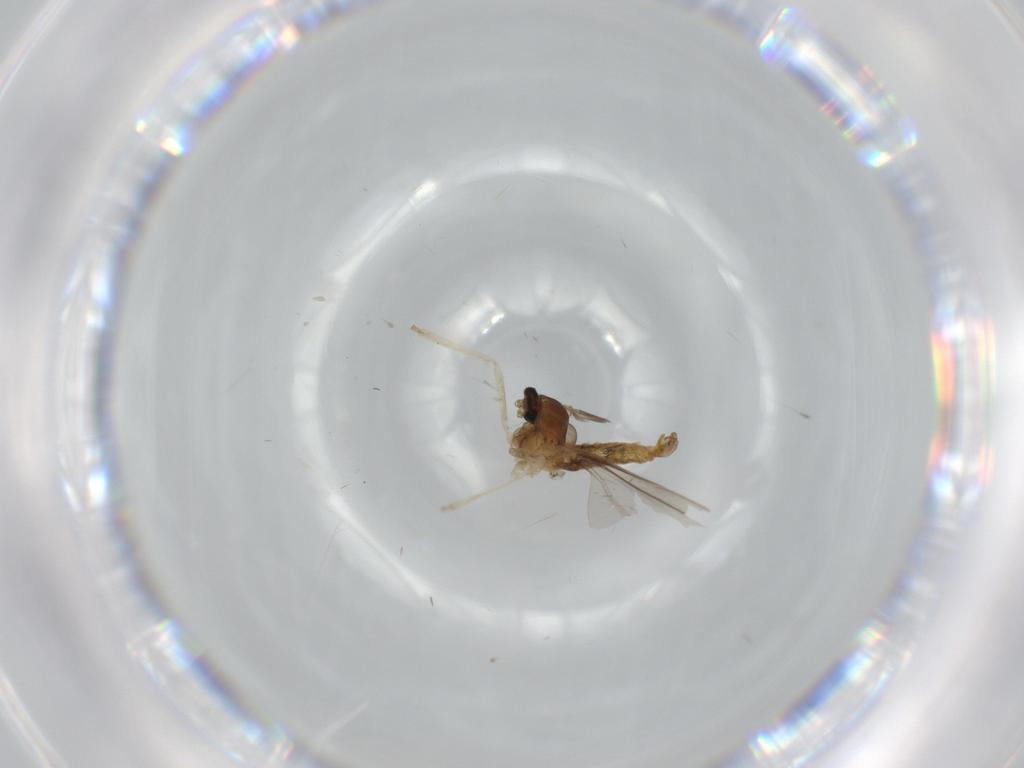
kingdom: Animalia
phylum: Arthropoda
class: Insecta
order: Diptera
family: Cecidomyiidae
